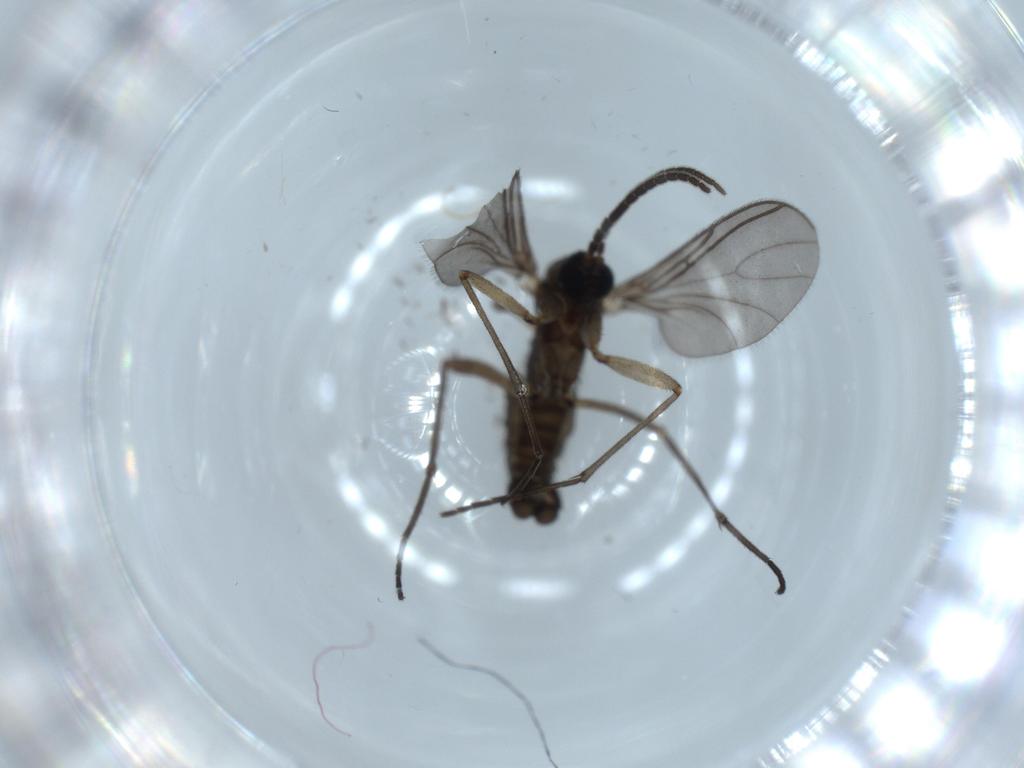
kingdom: Animalia
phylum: Arthropoda
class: Insecta
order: Diptera
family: Sciaridae
